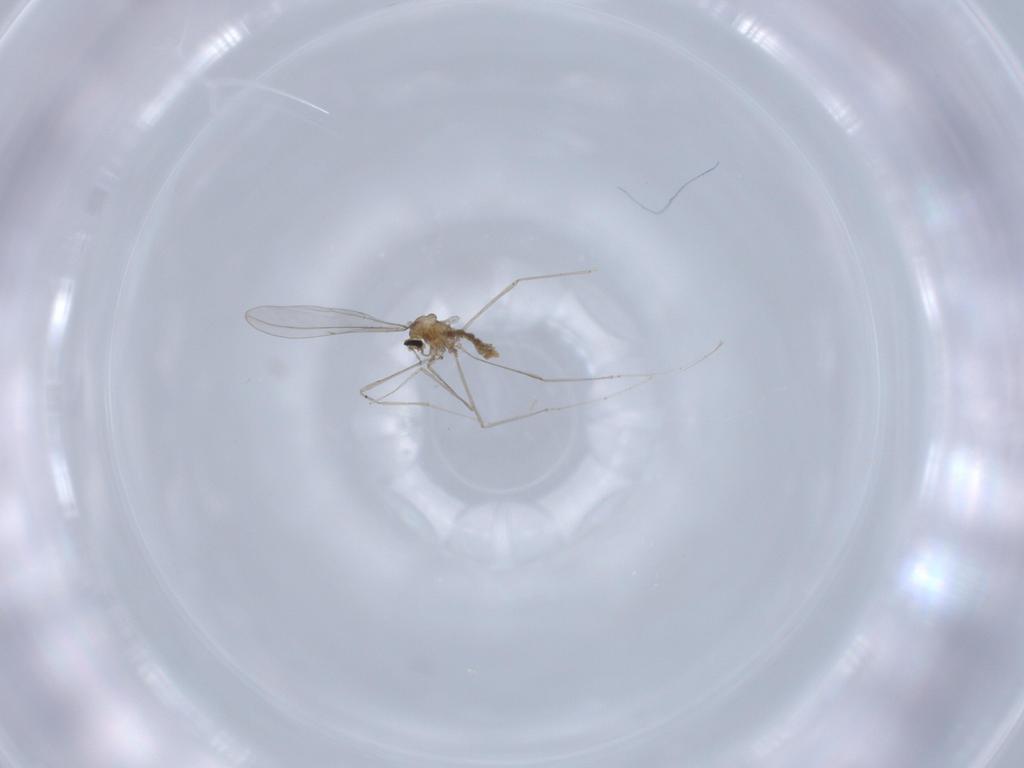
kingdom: Animalia
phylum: Arthropoda
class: Insecta
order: Diptera
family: Cecidomyiidae
